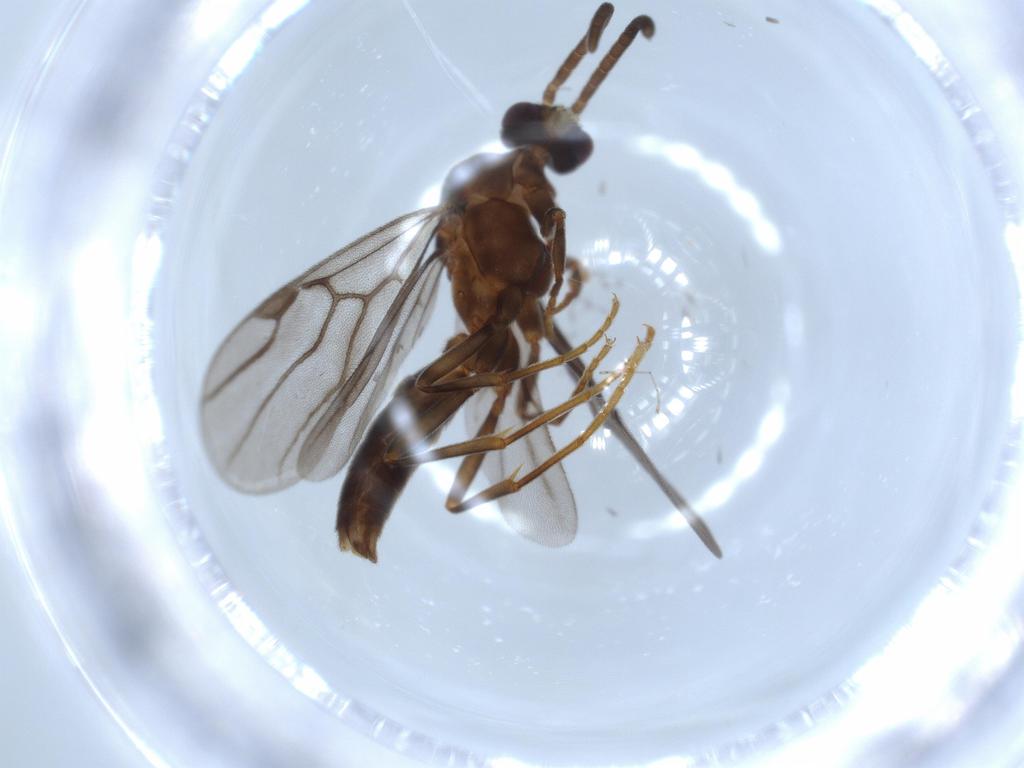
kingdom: Animalia
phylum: Arthropoda
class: Insecta
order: Hymenoptera
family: Formicidae
